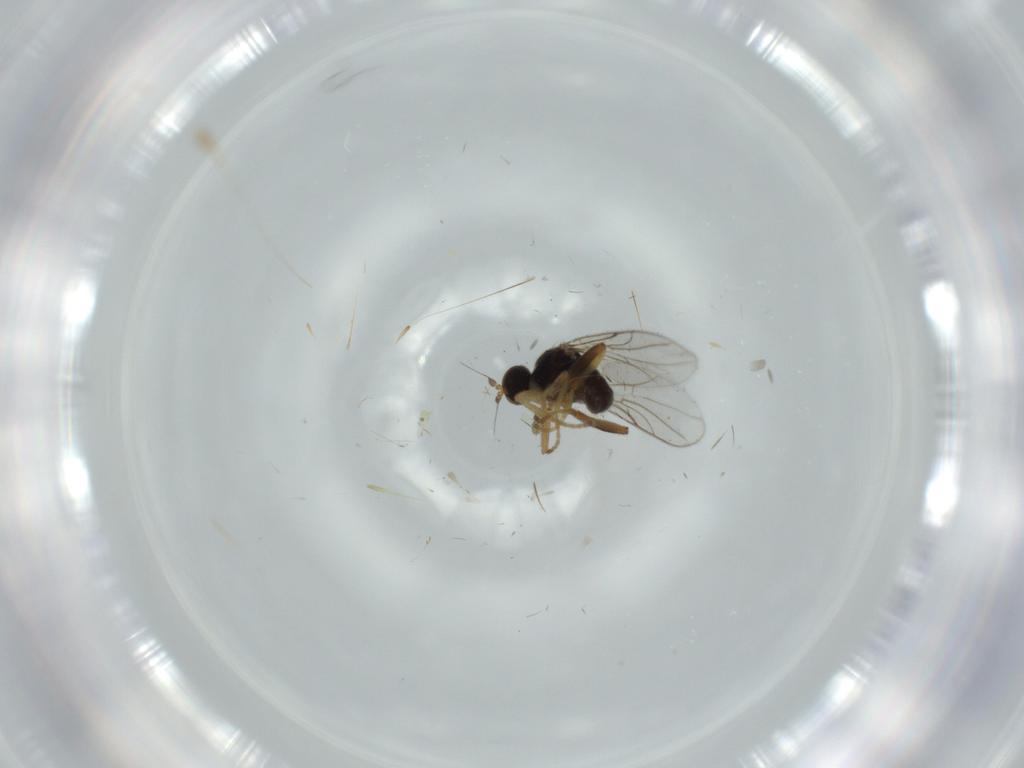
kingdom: Animalia
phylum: Arthropoda
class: Insecta
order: Diptera
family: Hybotidae
